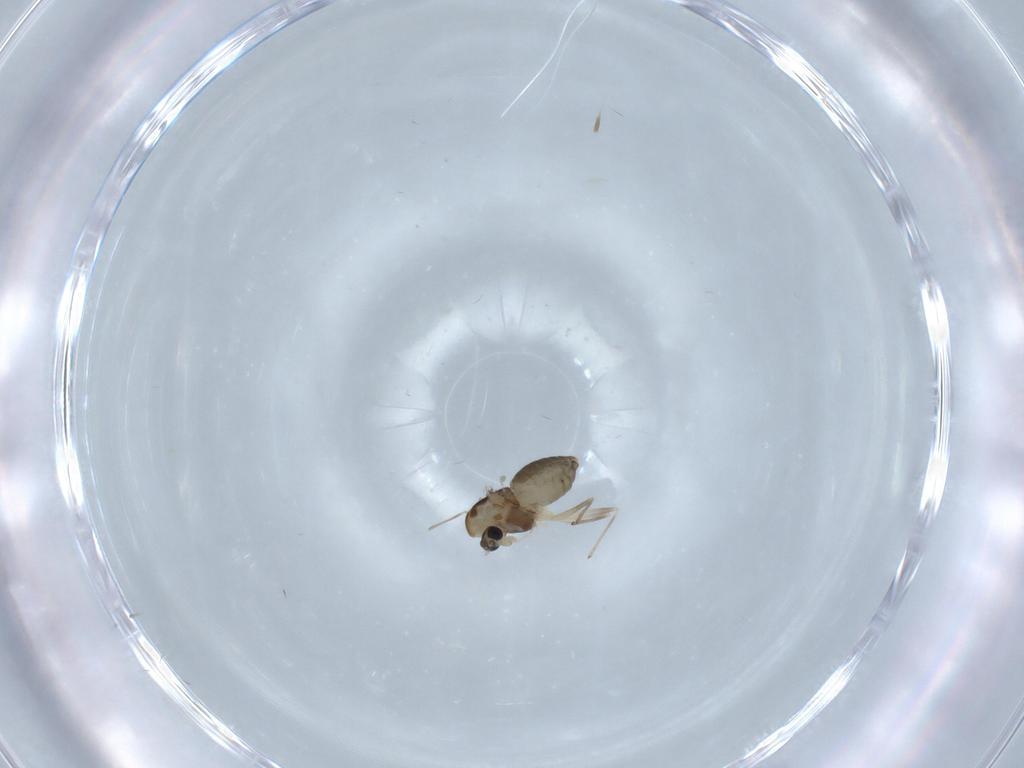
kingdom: Animalia
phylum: Arthropoda
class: Insecta
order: Diptera
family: Chironomidae
